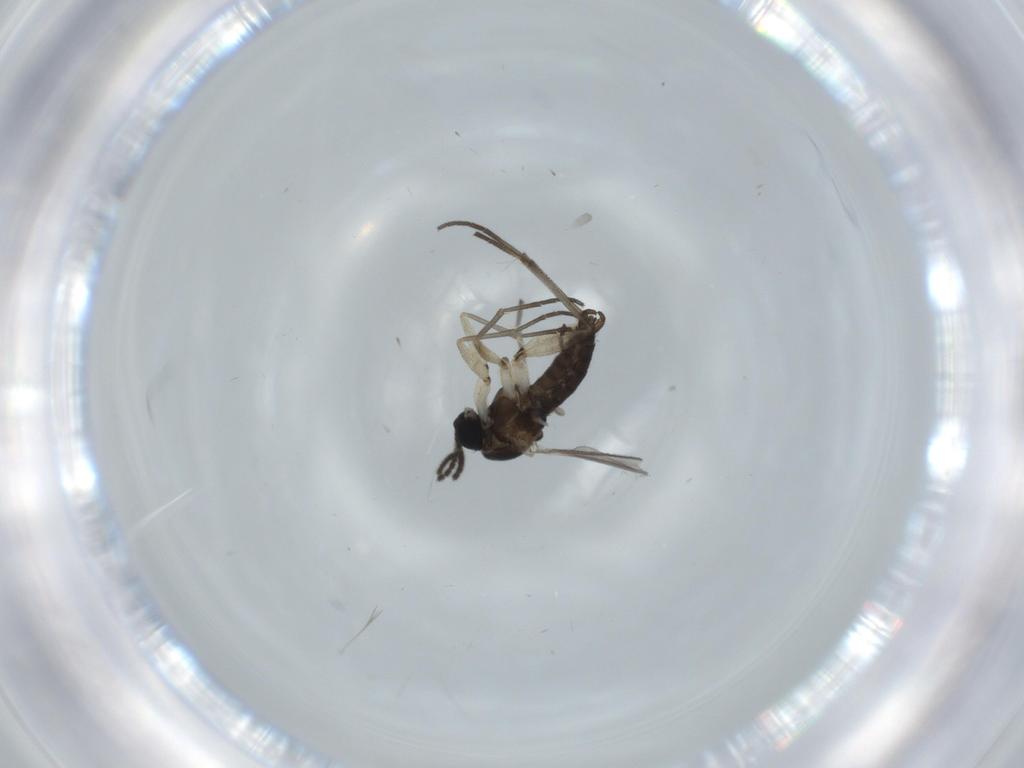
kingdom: Animalia
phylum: Arthropoda
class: Insecta
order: Diptera
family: Sciaridae
